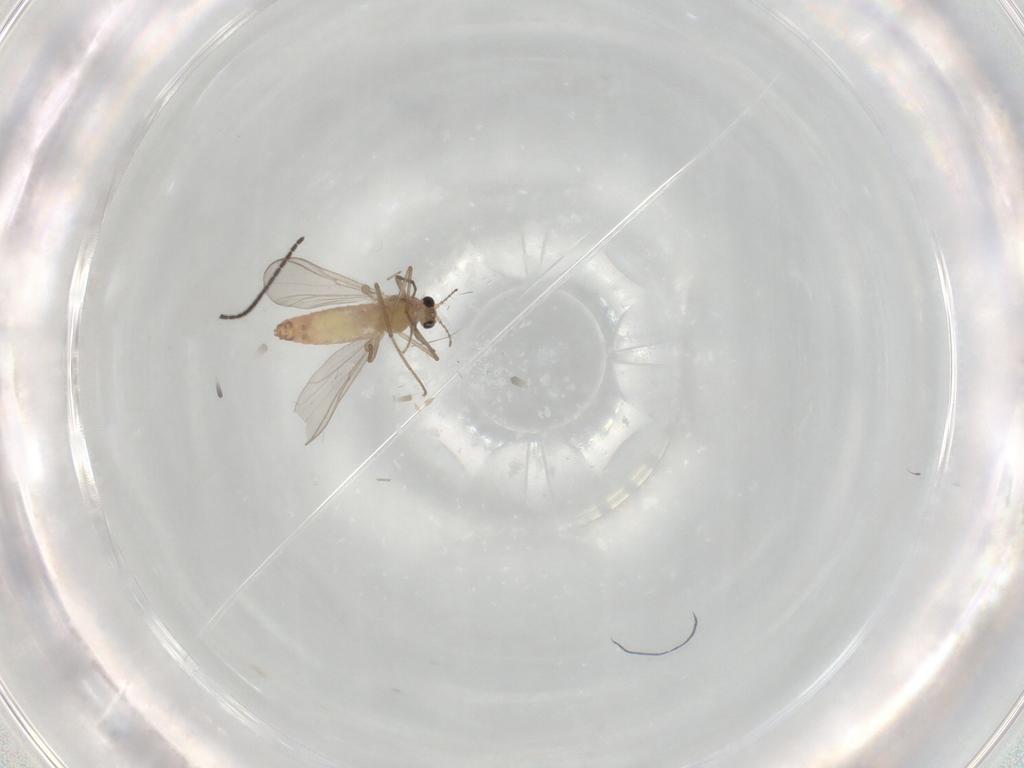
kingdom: Animalia
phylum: Arthropoda
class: Insecta
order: Diptera
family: Chironomidae
